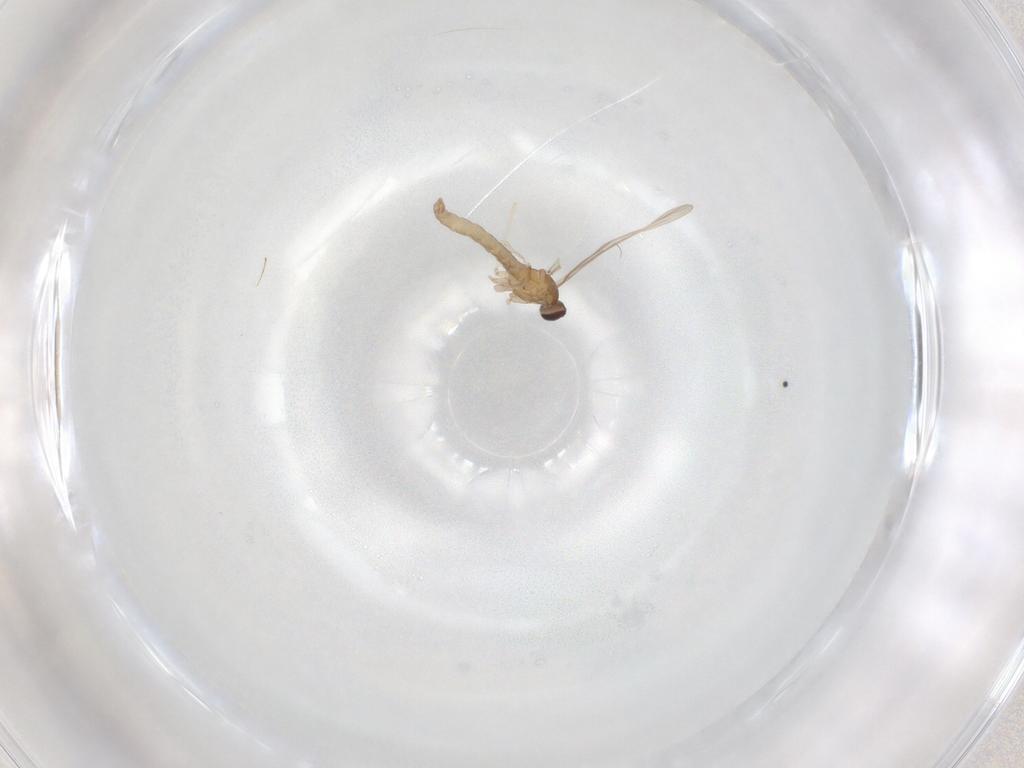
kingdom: Animalia
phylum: Arthropoda
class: Insecta
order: Diptera
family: Cecidomyiidae
